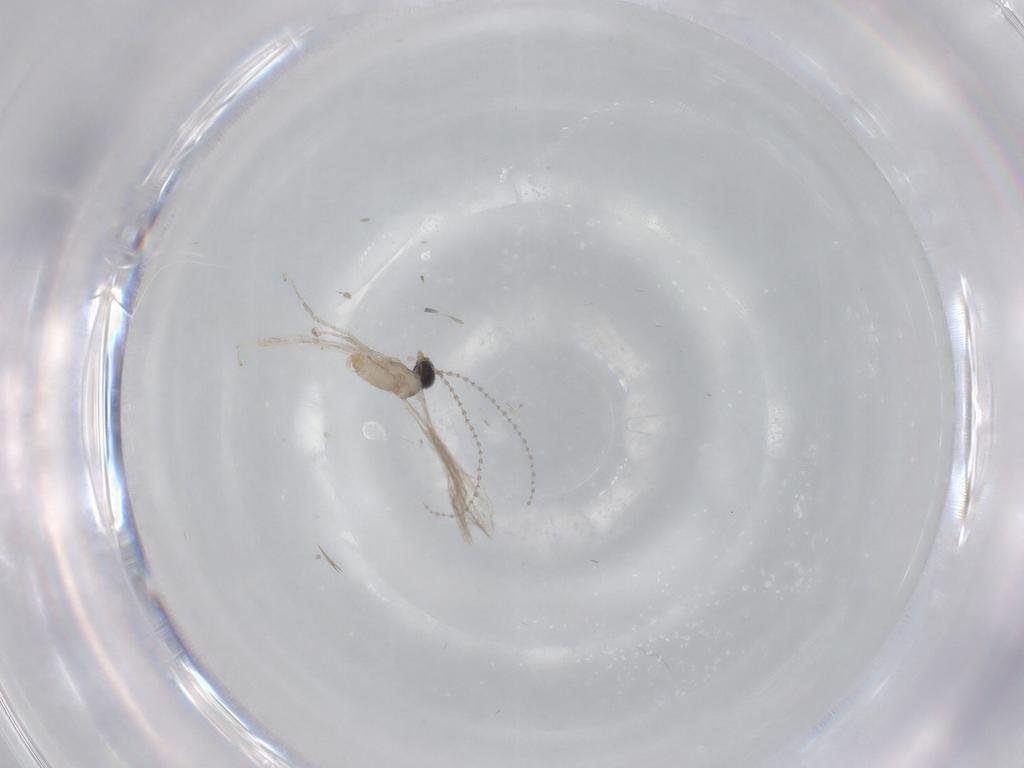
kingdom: Animalia
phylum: Arthropoda
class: Insecta
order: Diptera
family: Cecidomyiidae
